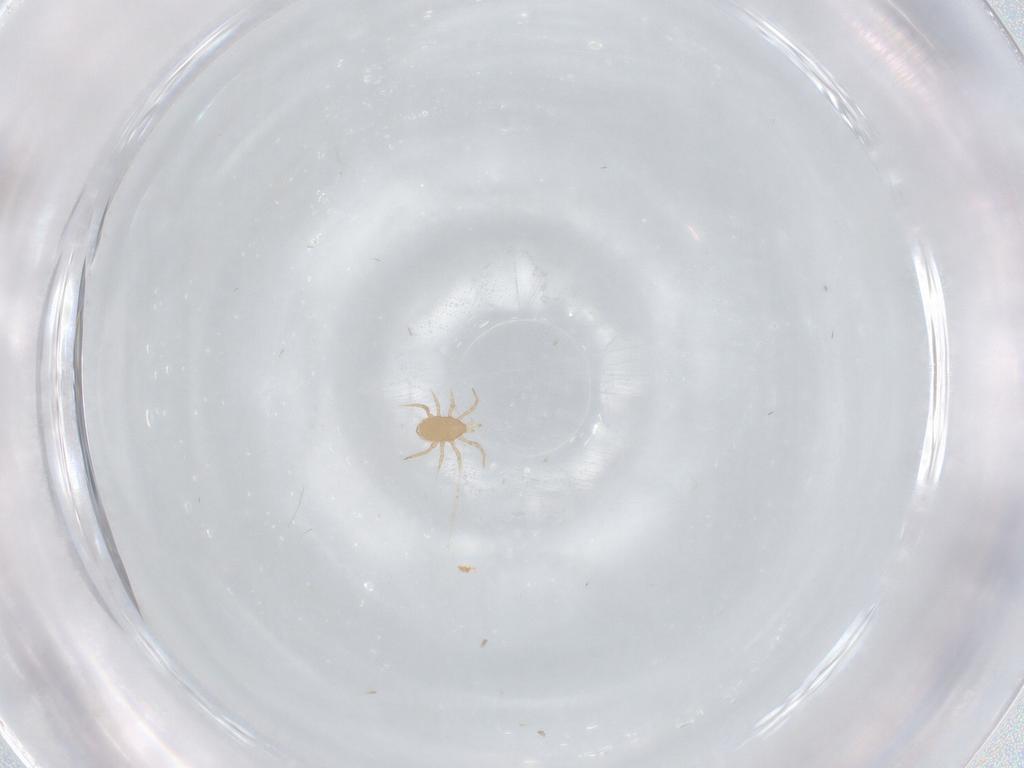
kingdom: Animalia
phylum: Arthropoda
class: Arachnida
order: Mesostigmata
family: Blattisociidae
